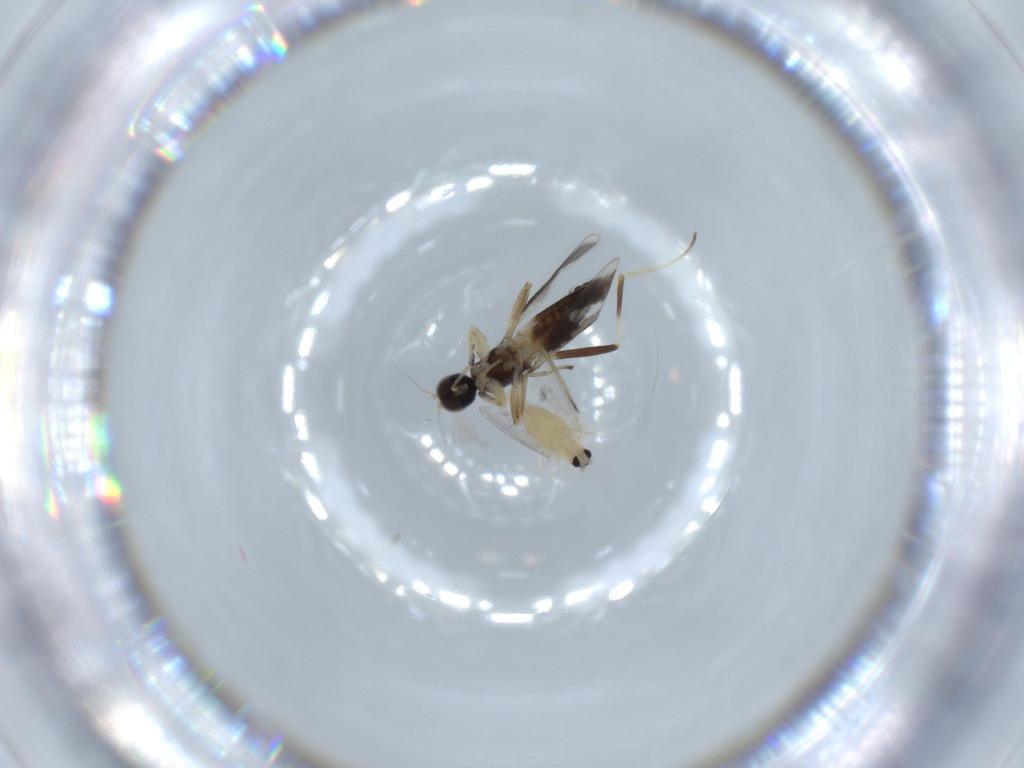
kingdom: Animalia
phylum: Arthropoda
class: Insecta
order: Diptera
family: Cecidomyiidae
